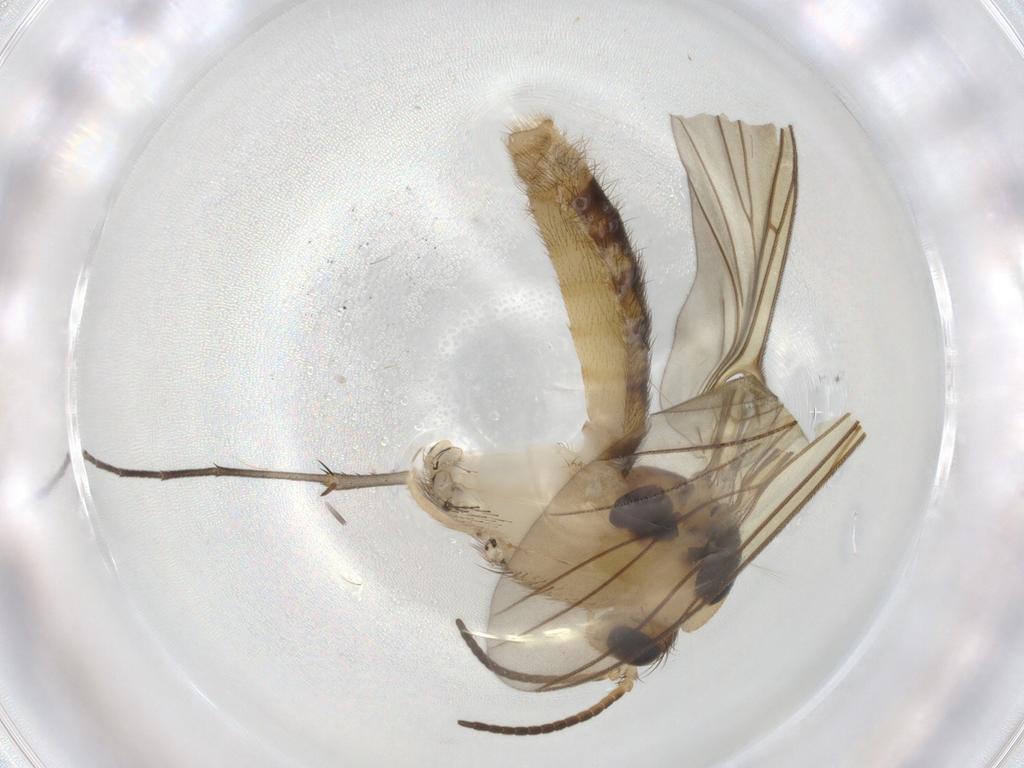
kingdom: Animalia
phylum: Arthropoda
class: Insecta
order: Diptera
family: Mycetophilidae
